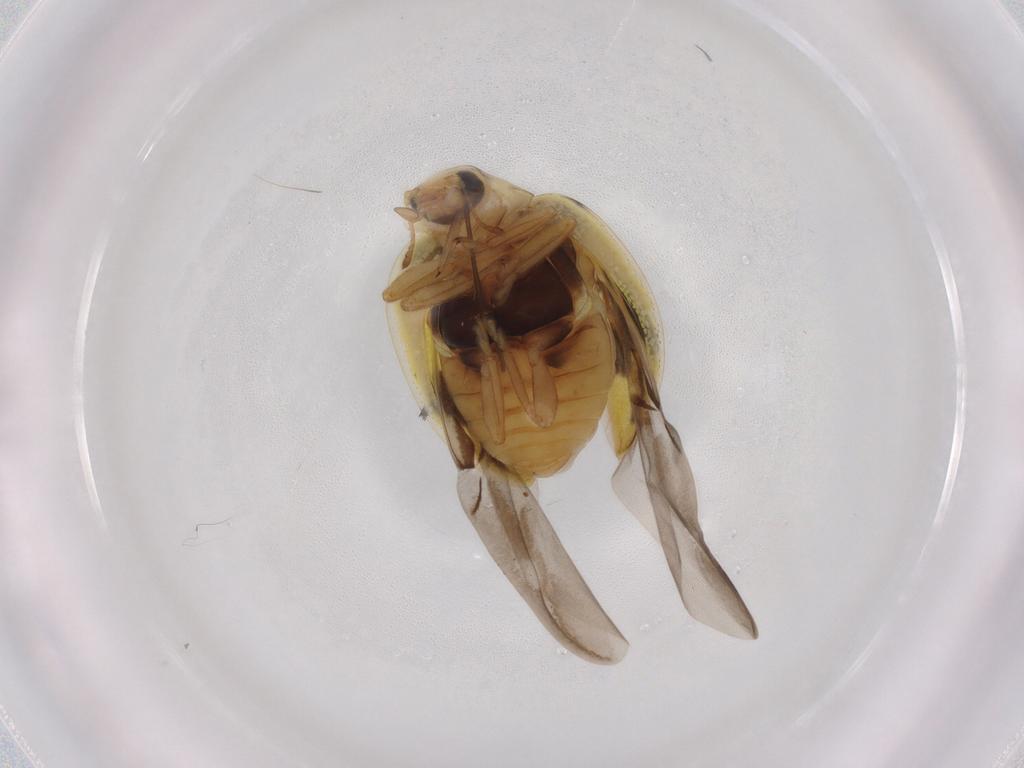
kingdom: Animalia
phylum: Arthropoda
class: Insecta
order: Coleoptera
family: Coccinellidae
